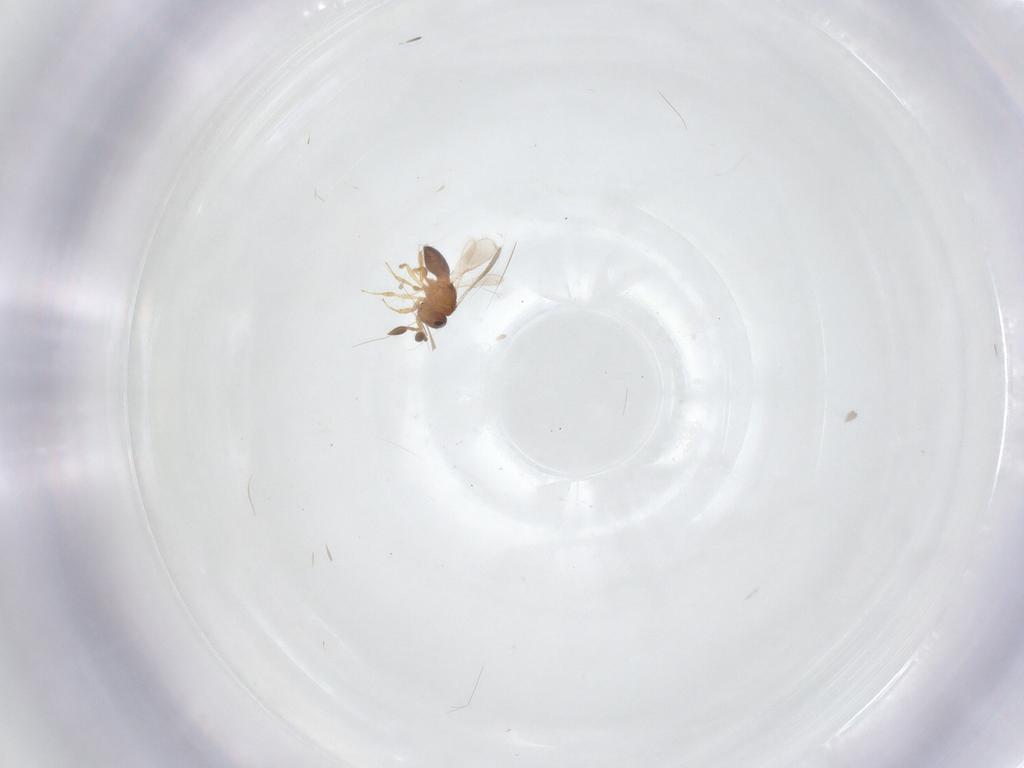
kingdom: Animalia
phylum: Arthropoda
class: Insecta
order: Hymenoptera
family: Scelionidae
